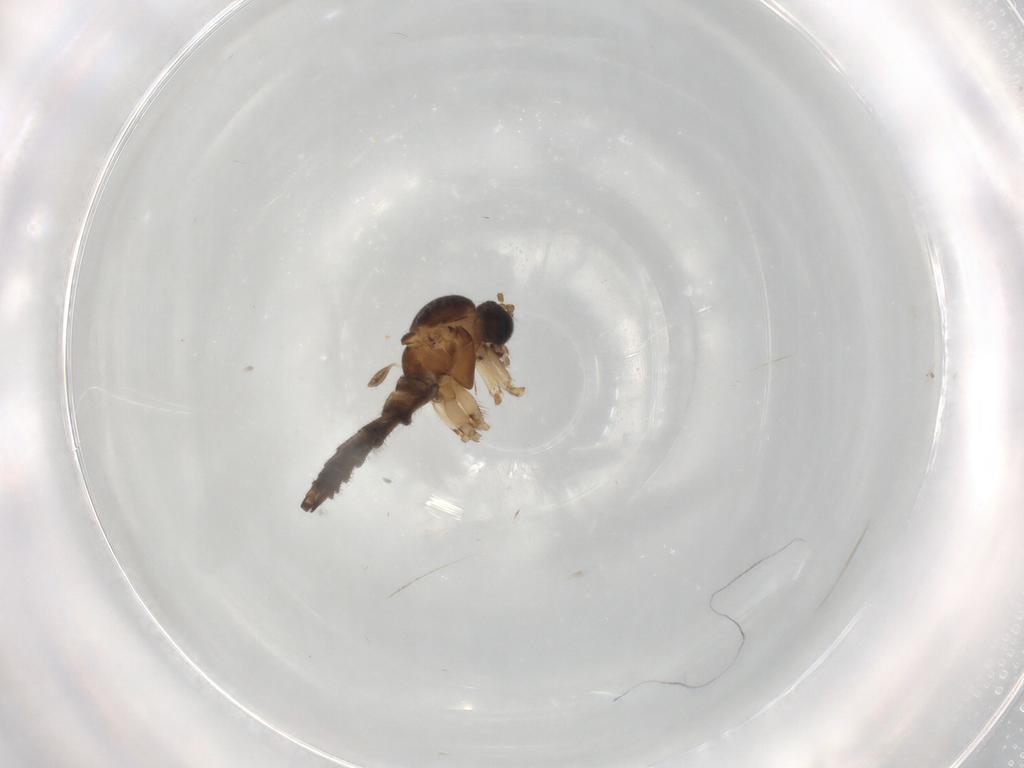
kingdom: Animalia
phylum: Arthropoda
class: Insecta
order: Diptera
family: Sciaridae
